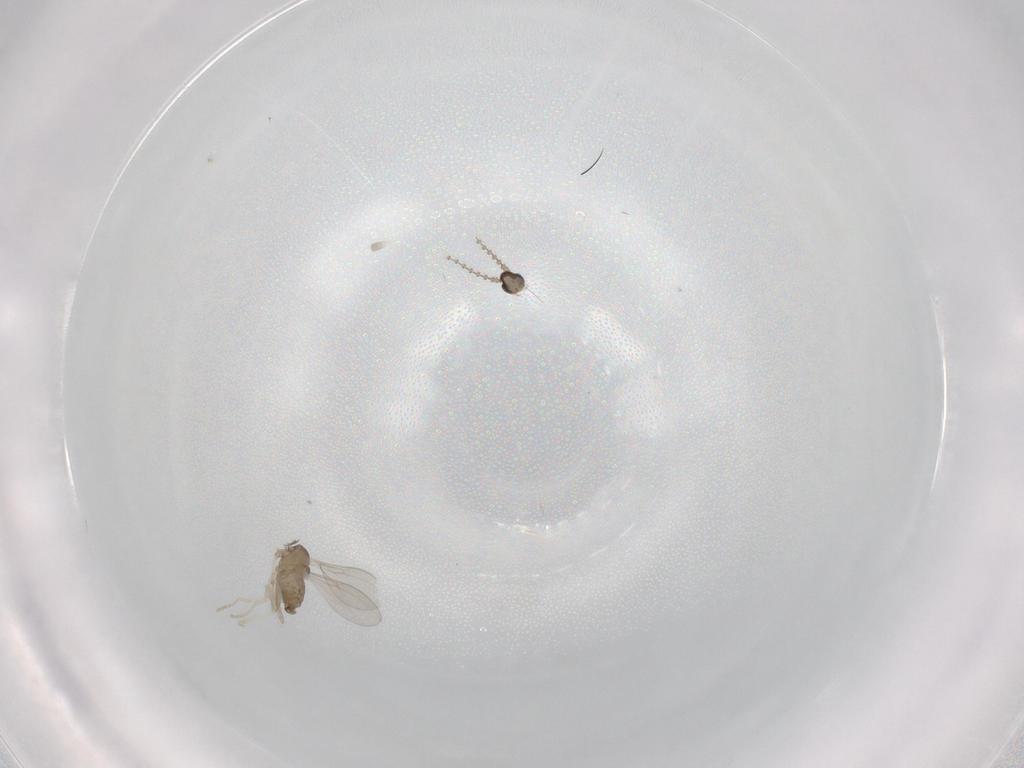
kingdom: Animalia
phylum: Arthropoda
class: Insecta
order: Diptera
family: Cecidomyiidae
